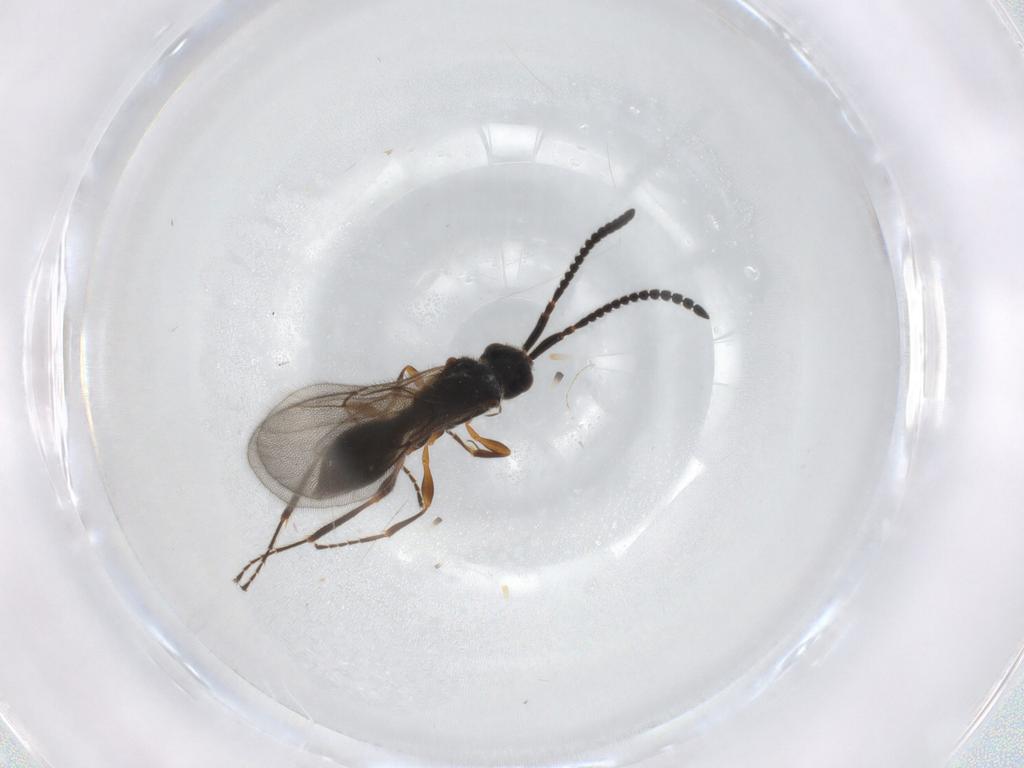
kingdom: Animalia
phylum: Arthropoda
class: Insecta
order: Hymenoptera
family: Diapriidae
